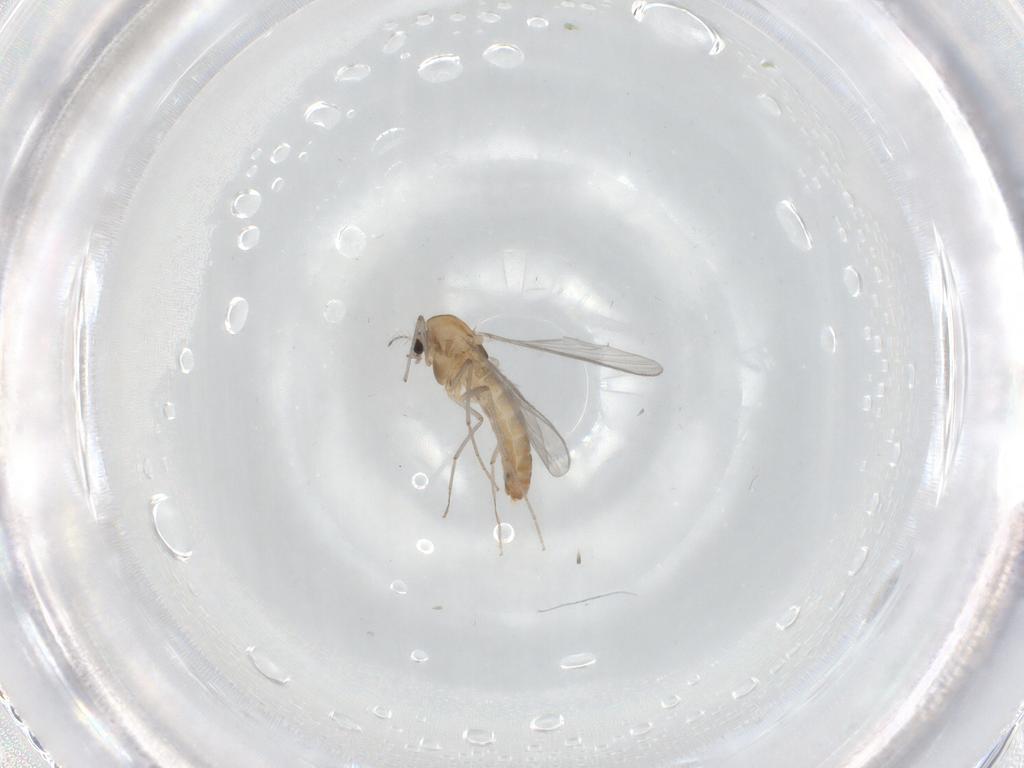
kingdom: Animalia
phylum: Arthropoda
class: Insecta
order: Diptera
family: Chironomidae
